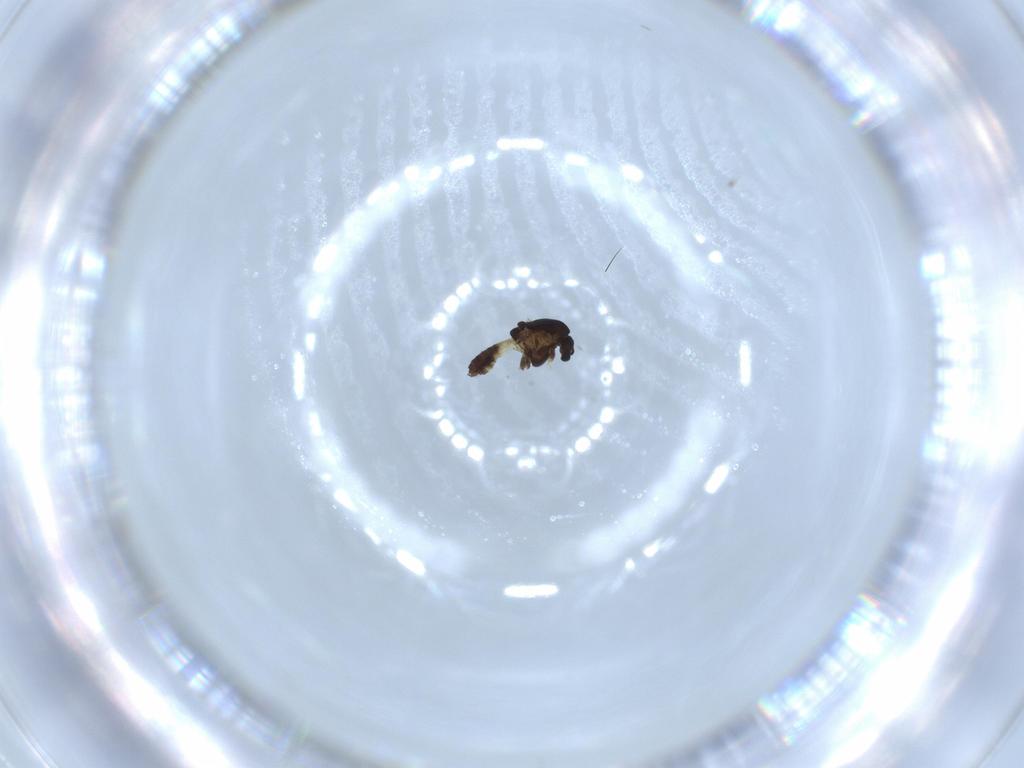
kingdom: Animalia
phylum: Arthropoda
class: Insecta
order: Diptera
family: Chironomidae
